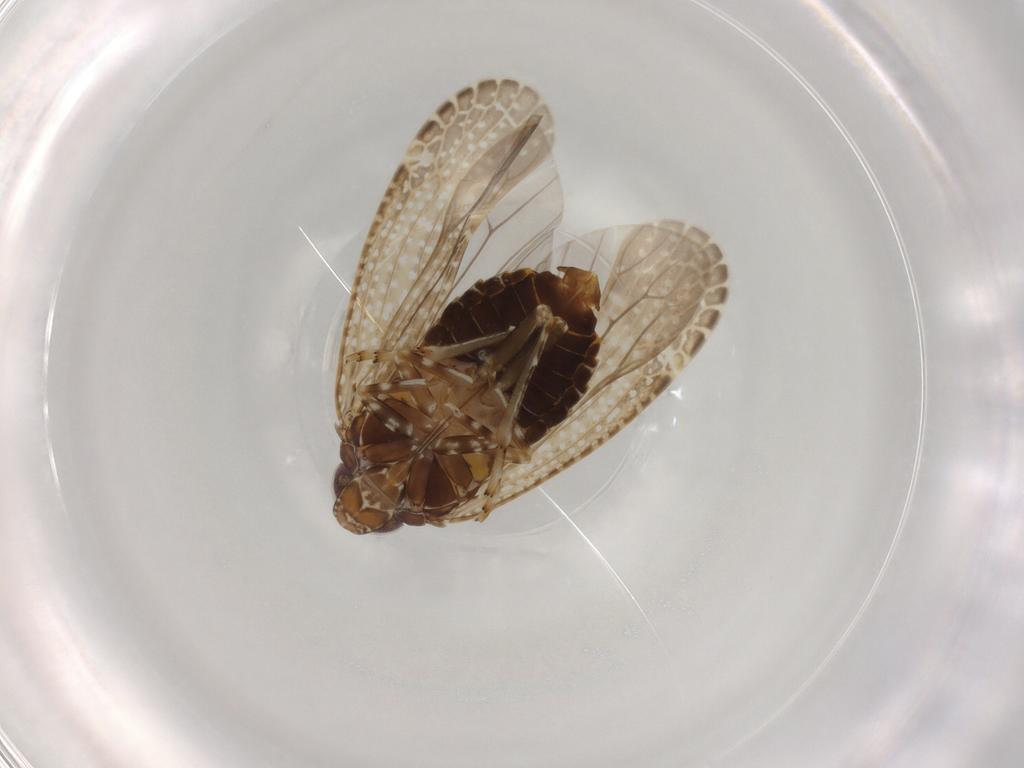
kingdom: Animalia
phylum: Arthropoda
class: Insecta
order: Hemiptera
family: Achilidae
